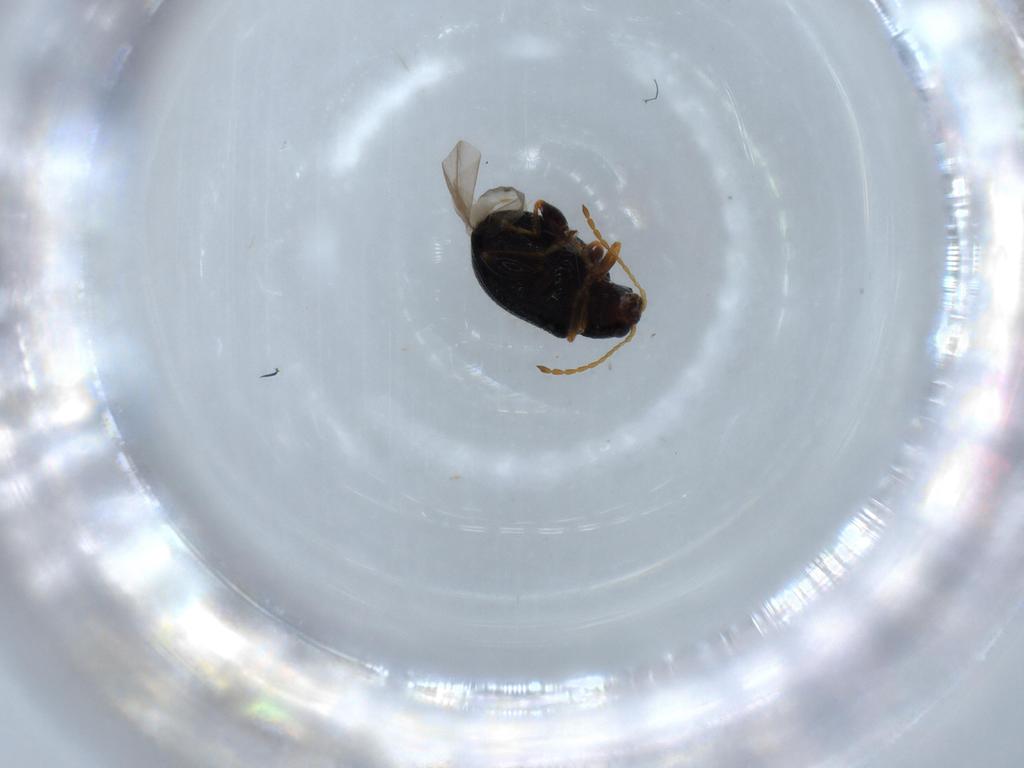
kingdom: Animalia
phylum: Arthropoda
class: Insecta
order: Coleoptera
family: Chrysomelidae
